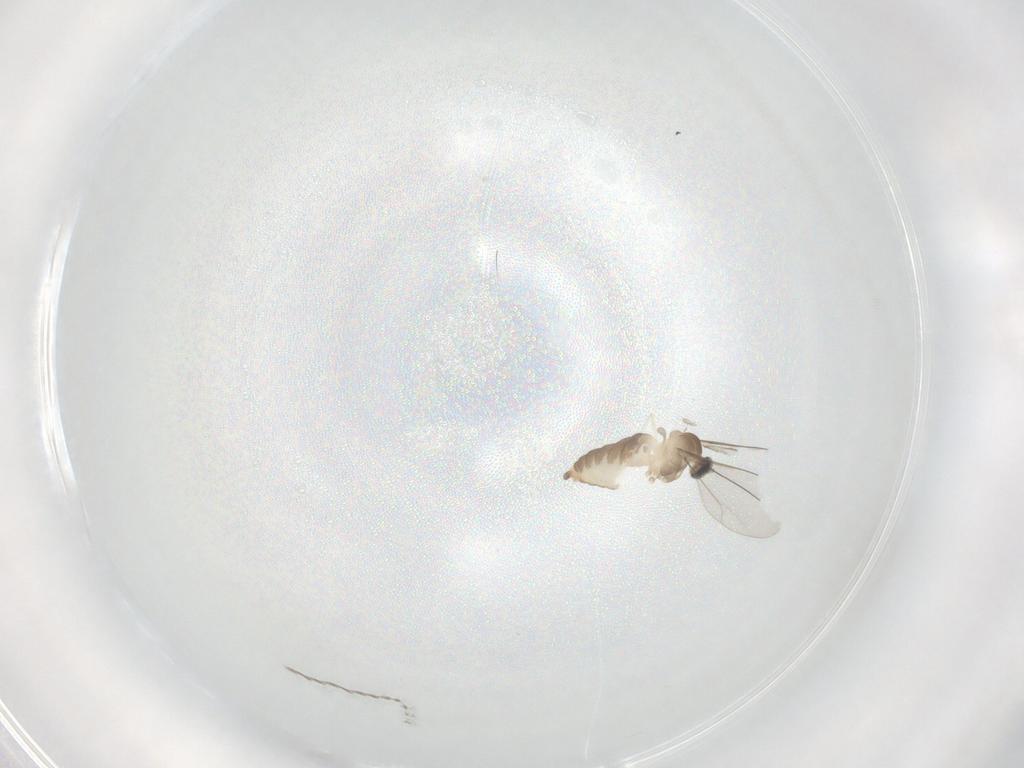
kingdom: Animalia
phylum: Arthropoda
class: Insecta
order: Diptera
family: Cecidomyiidae
